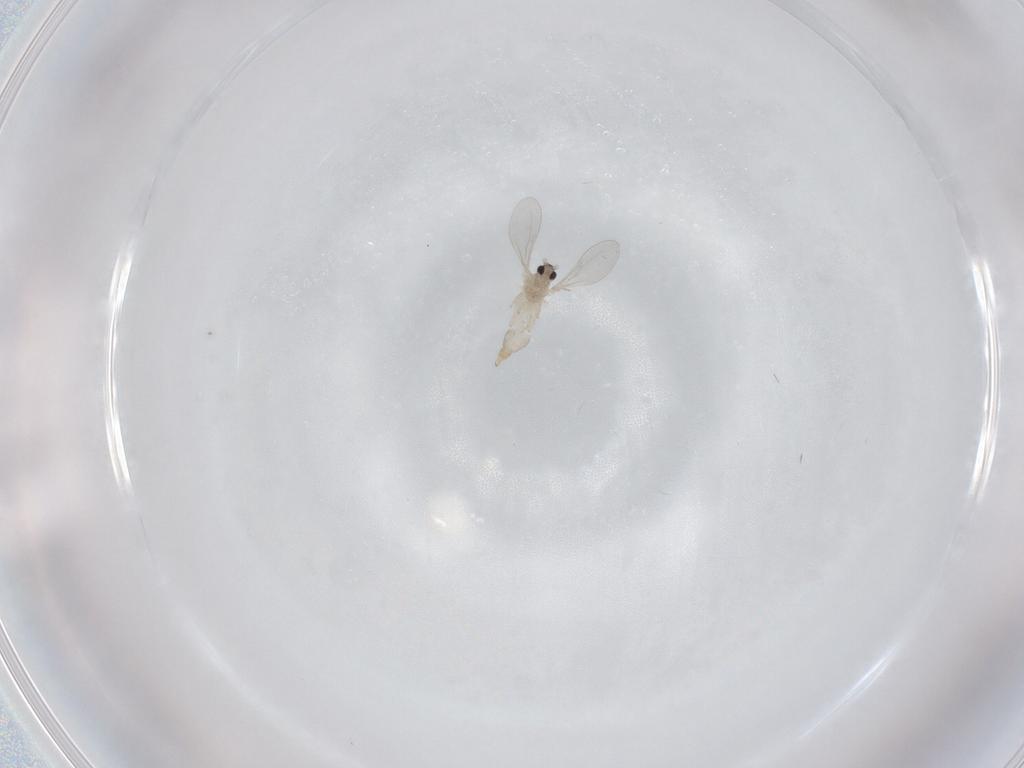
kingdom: Animalia
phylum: Arthropoda
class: Insecta
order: Diptera
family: Cecidomyiidae
